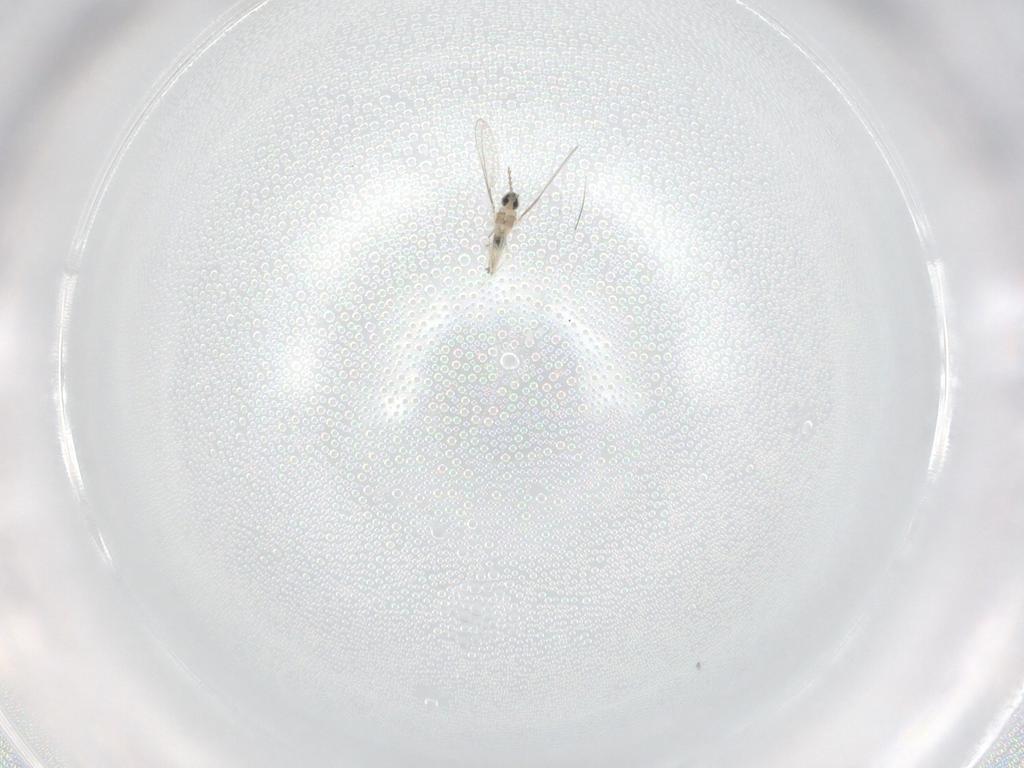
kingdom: Animalia
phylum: Arthropoda
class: Insecta
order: Diptera
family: Cecidomyiidae
